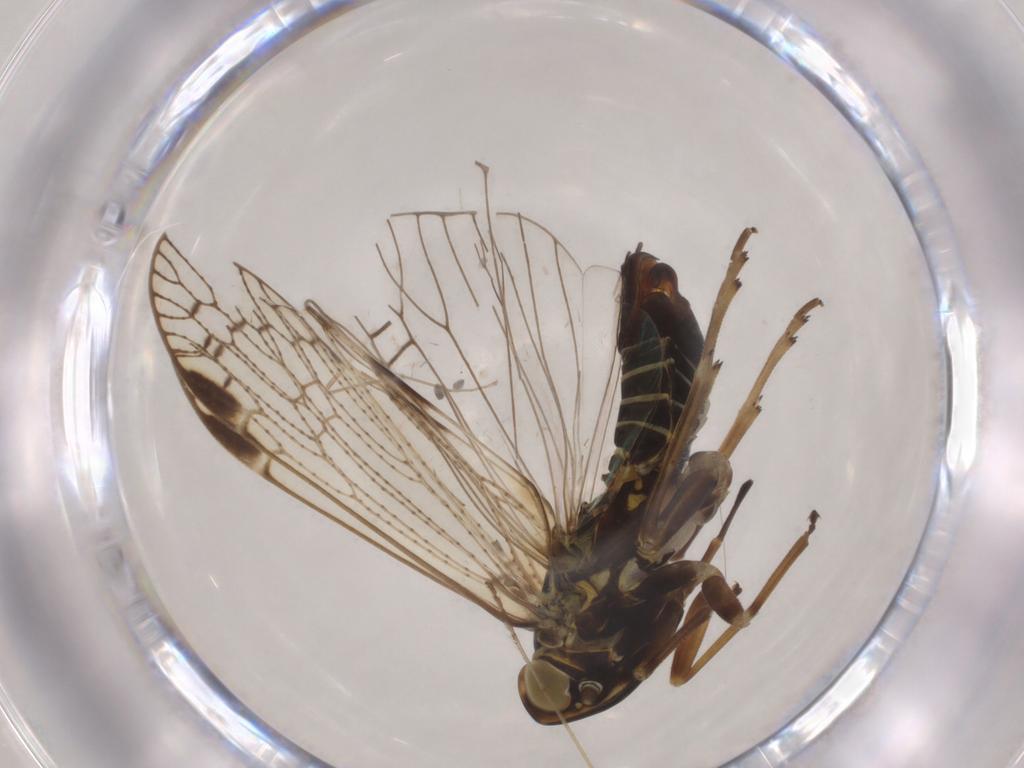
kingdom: Animalia
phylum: Arthropoda
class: Insecta
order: Hemiptera
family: Cixiidae
